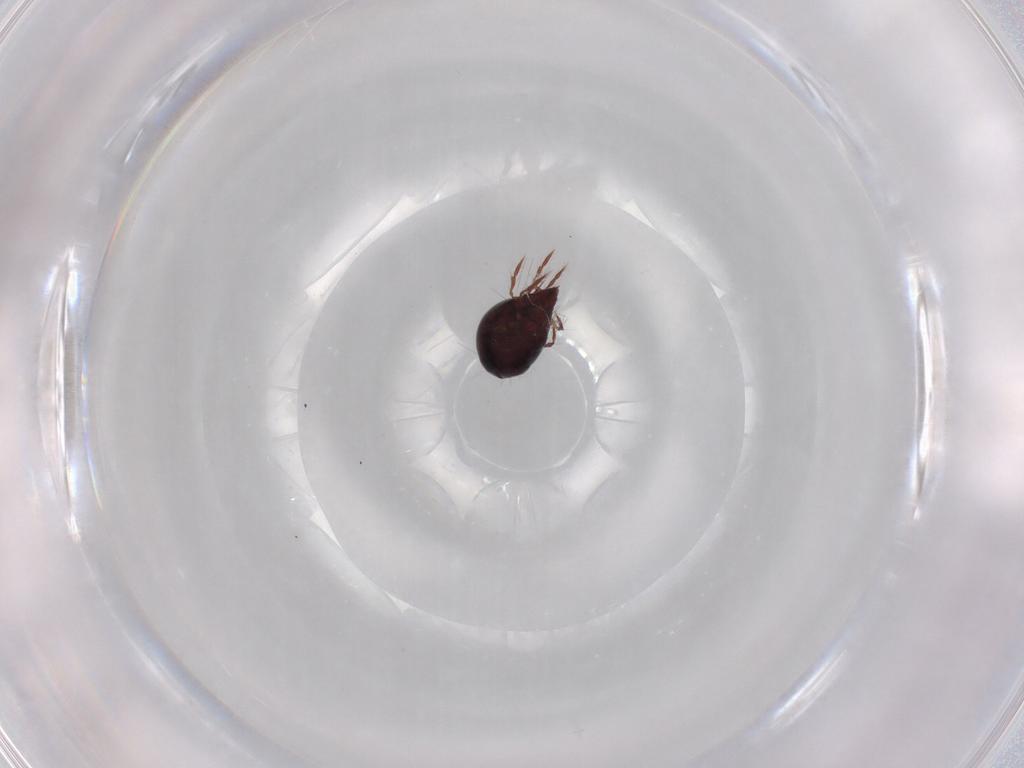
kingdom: Animalia
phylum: Arthropoda
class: Arachnida
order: Sarcoptiformes
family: Ceratoppiidae
